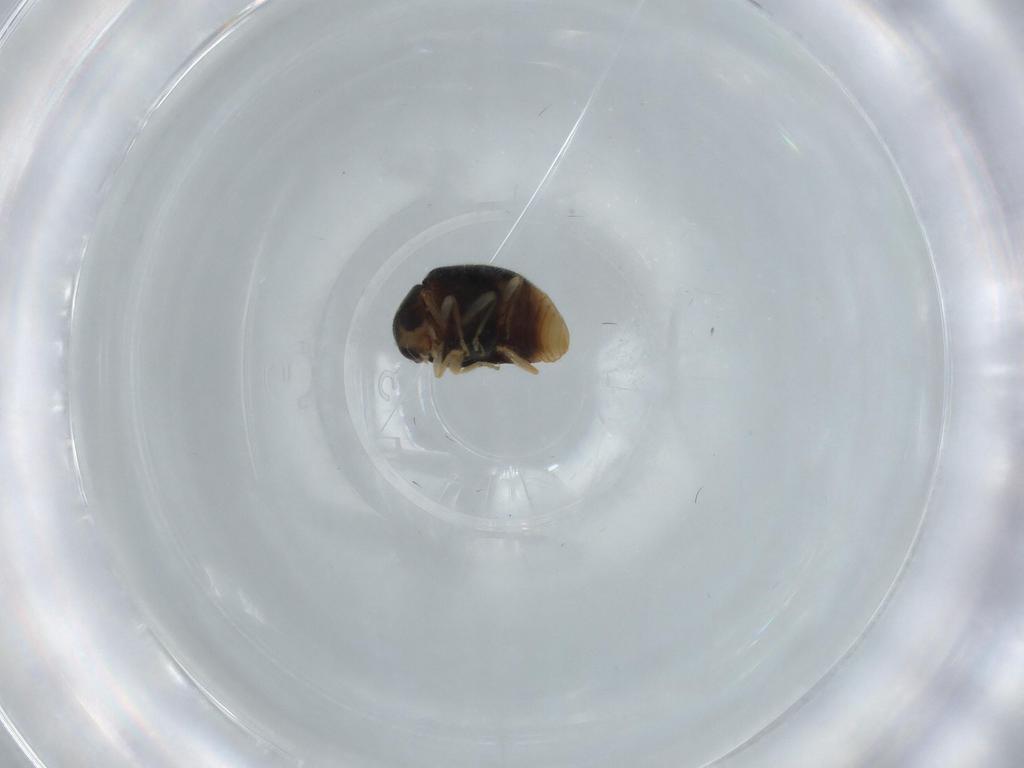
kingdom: Animalia
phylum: Arthropoda
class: Insecta
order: Coleoptera
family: Coccinellidae
